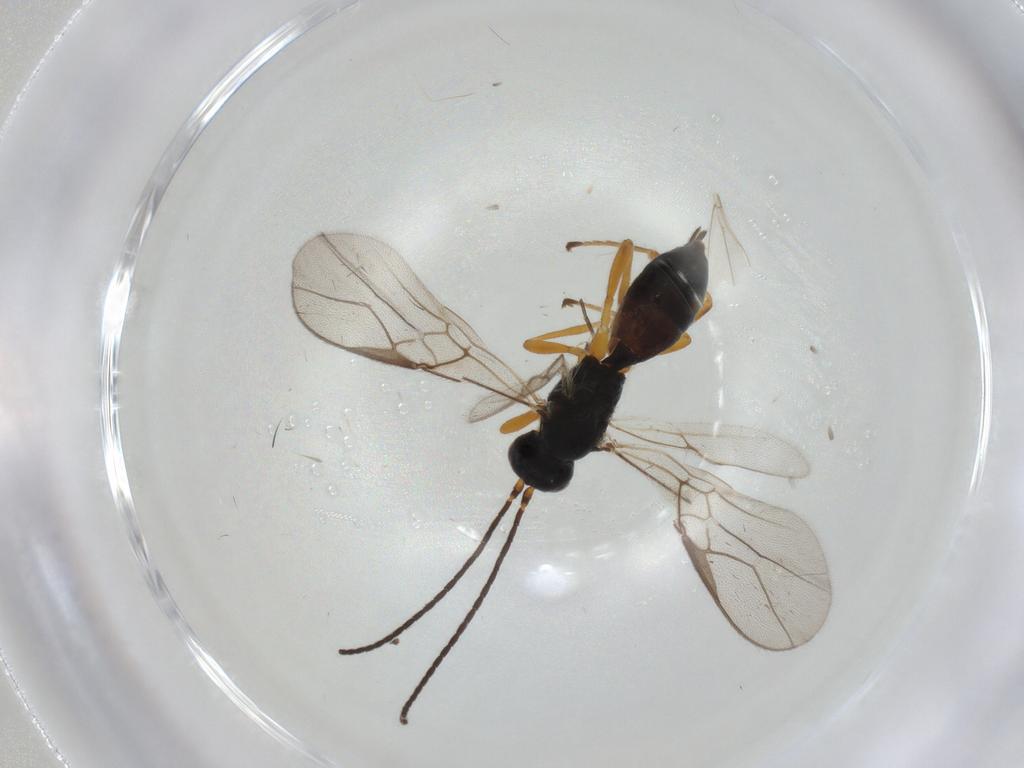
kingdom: Animalia
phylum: Arthropoda
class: Insecta
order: Hymenoptera
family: Braconidae
